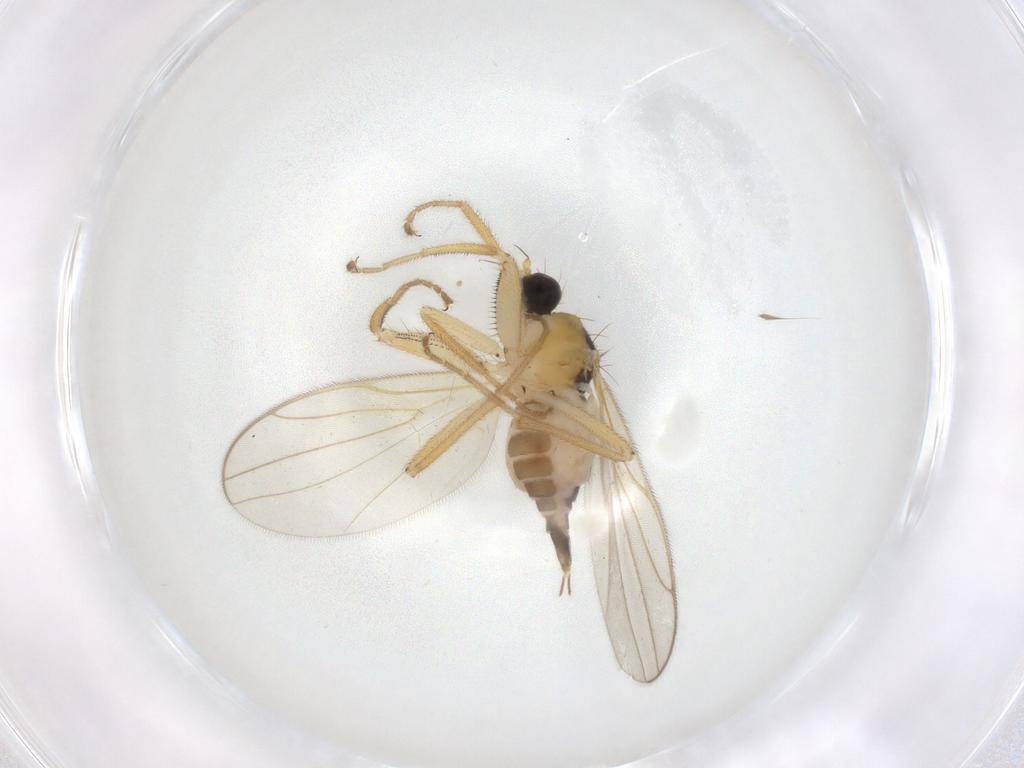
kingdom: Animalia
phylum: Arthropoda
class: Insecta
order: Diptera
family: Hybotidae
